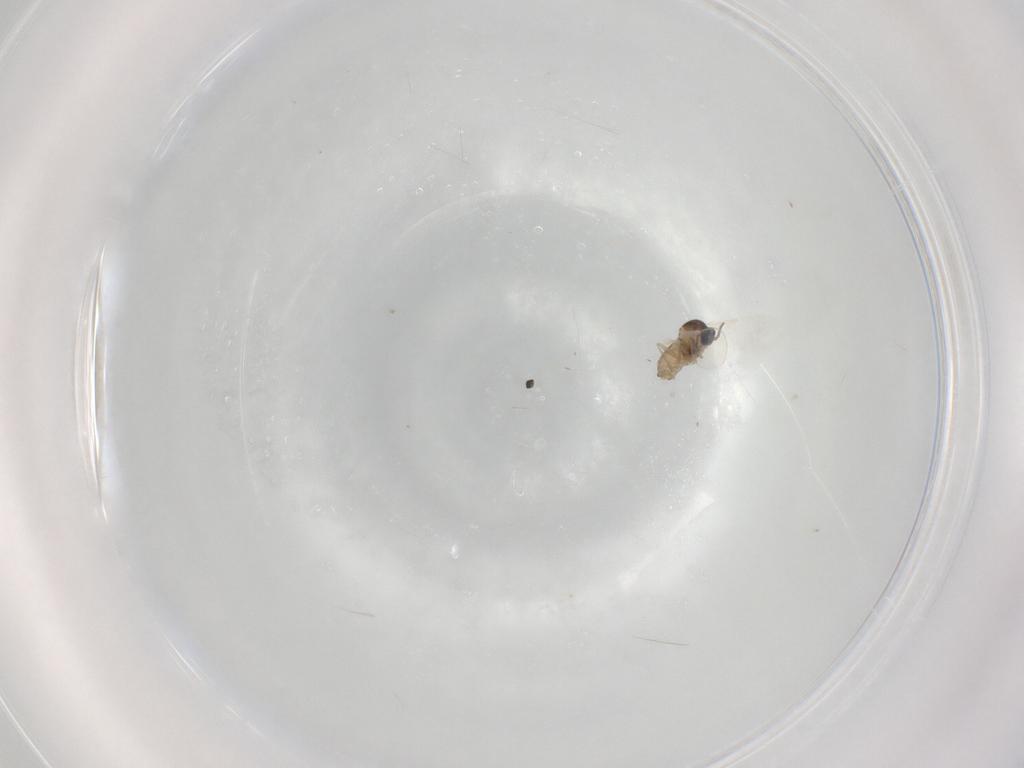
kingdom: Animalia
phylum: Arthropoda
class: Insecta
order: Diptera
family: Cecidomyiidae
